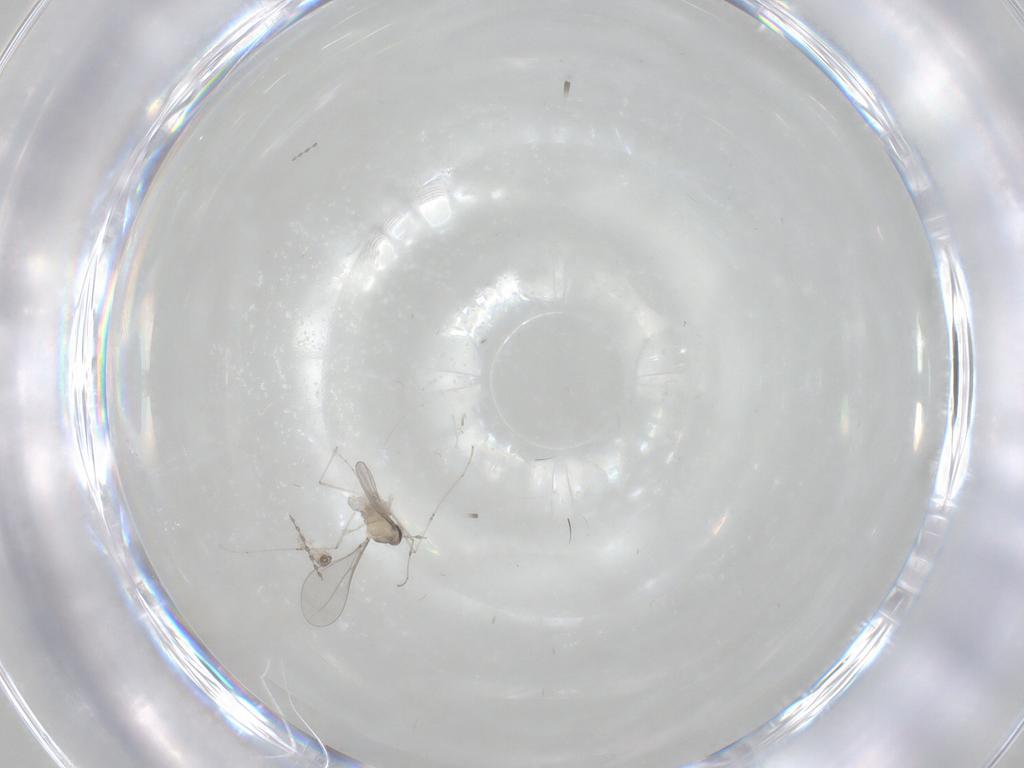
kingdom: Animalia
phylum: Arthropoda
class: Insecta
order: Diptera
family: Cecidomyiidae
